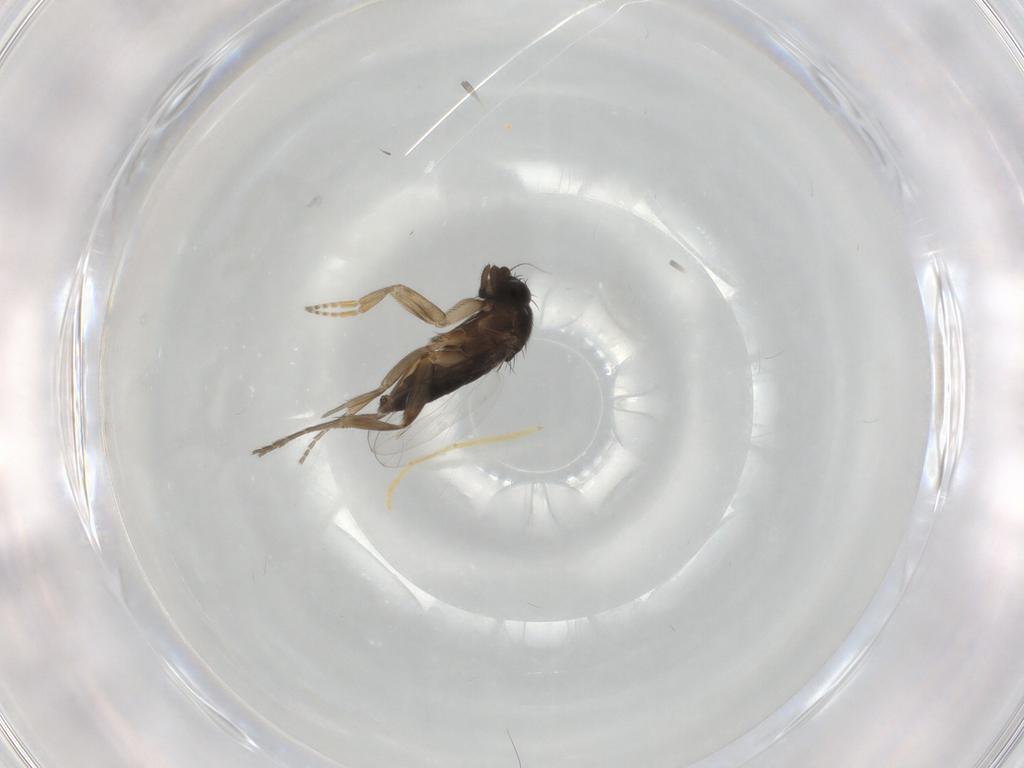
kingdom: Animalia
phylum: Arthropoda
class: Insecta
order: Diptera
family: Phoridae
